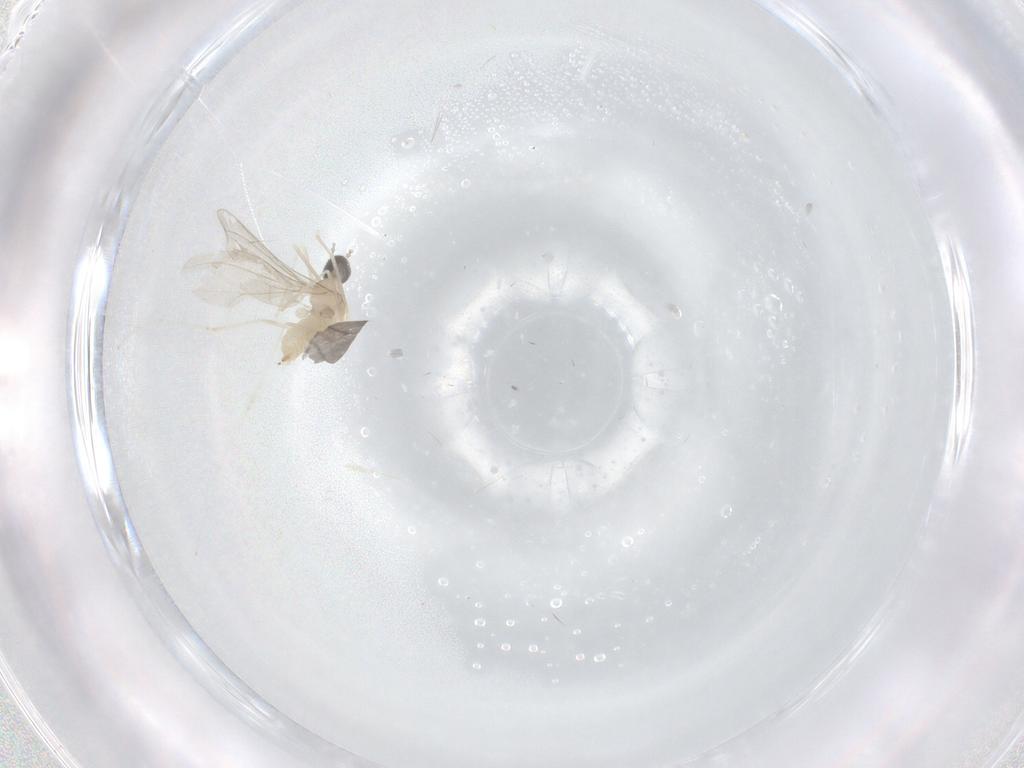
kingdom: Animalia
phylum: Arthropoda
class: Insecta
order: Diptera
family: Cecidomyiidae
